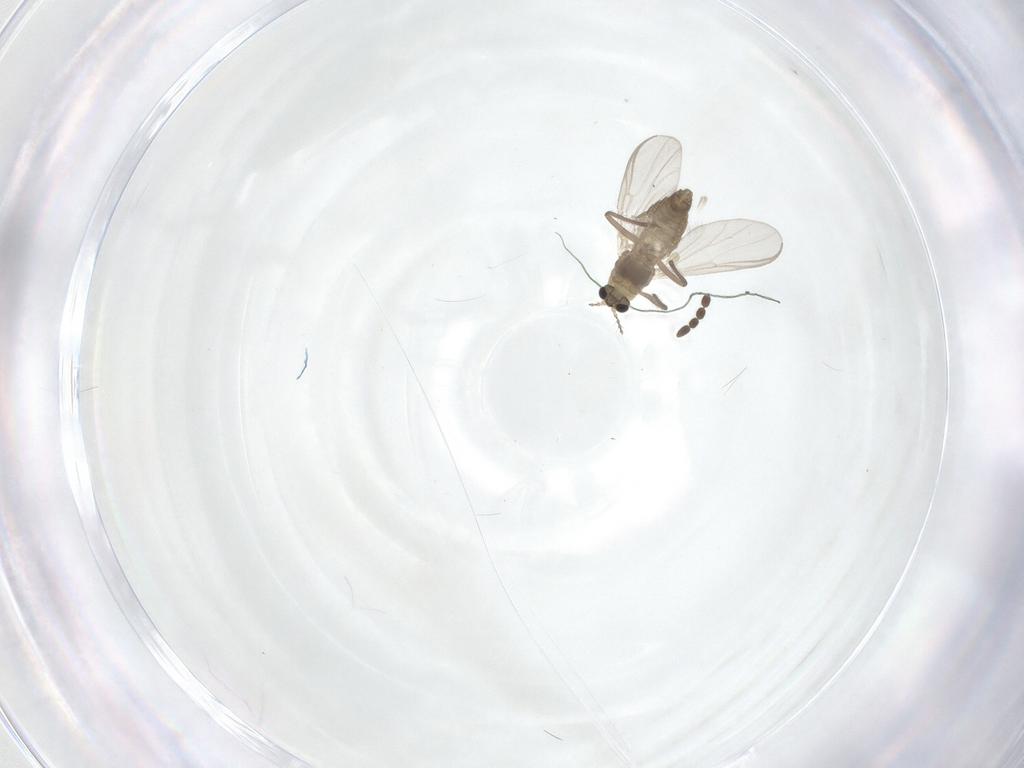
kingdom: Animalia
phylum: Arthropoda
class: Insecta
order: Diptera
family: Chironomidae
